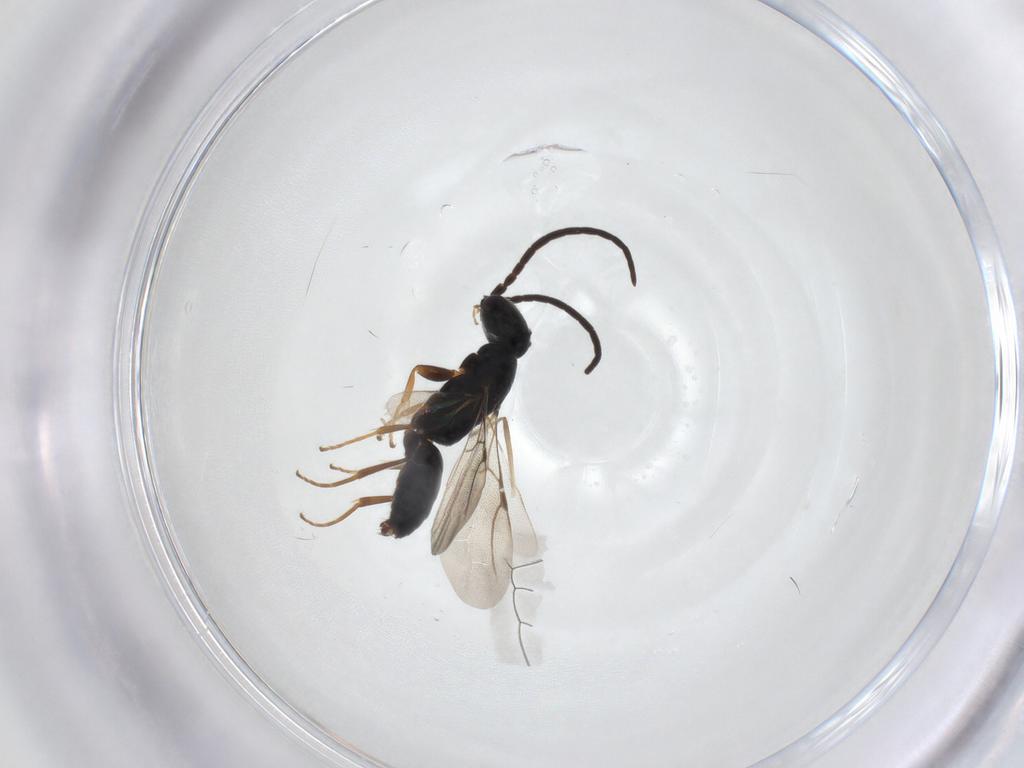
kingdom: Animalia
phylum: Arthropoda
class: Insecta
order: Hymenoptera
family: Bethylidae
